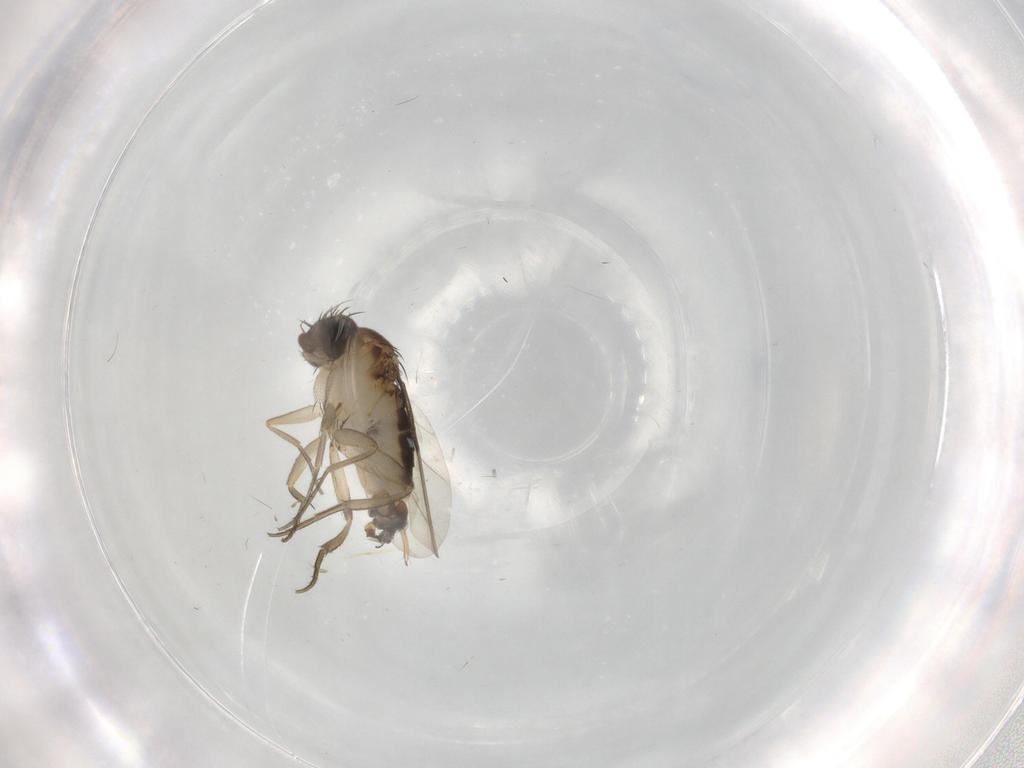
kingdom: Animalia
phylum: Arthropoda
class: Insecta
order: Diptera
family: Phoridae
